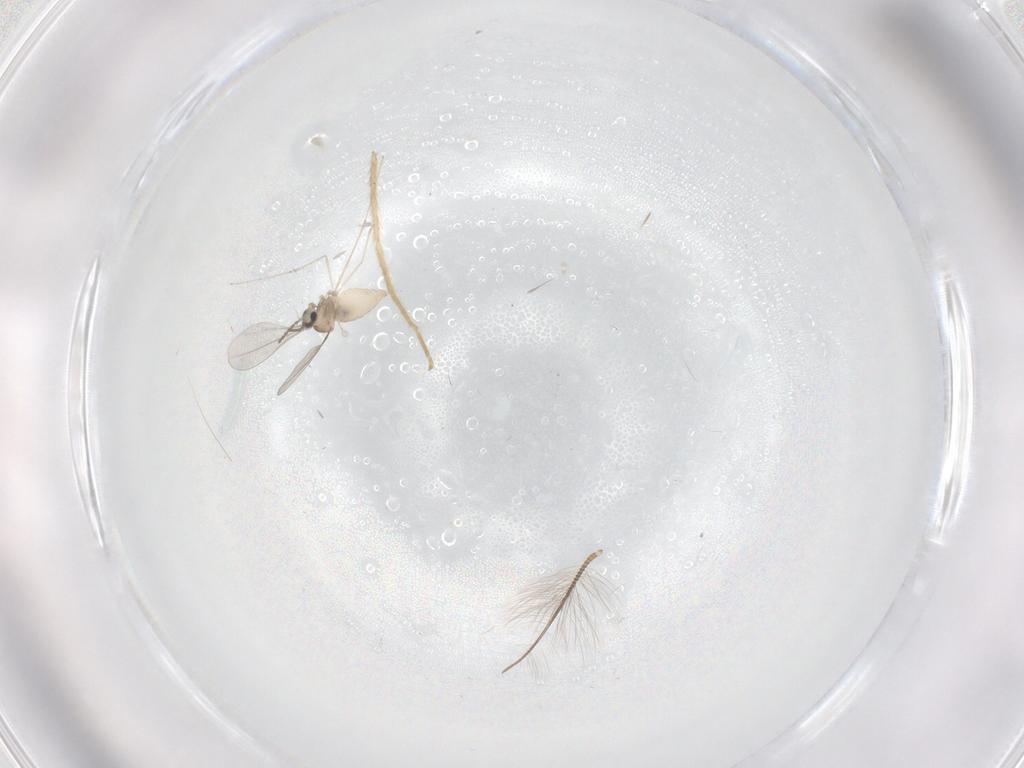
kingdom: Animalia
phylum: Arthropoda
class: Insecta
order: Diptera
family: Chironomidae
